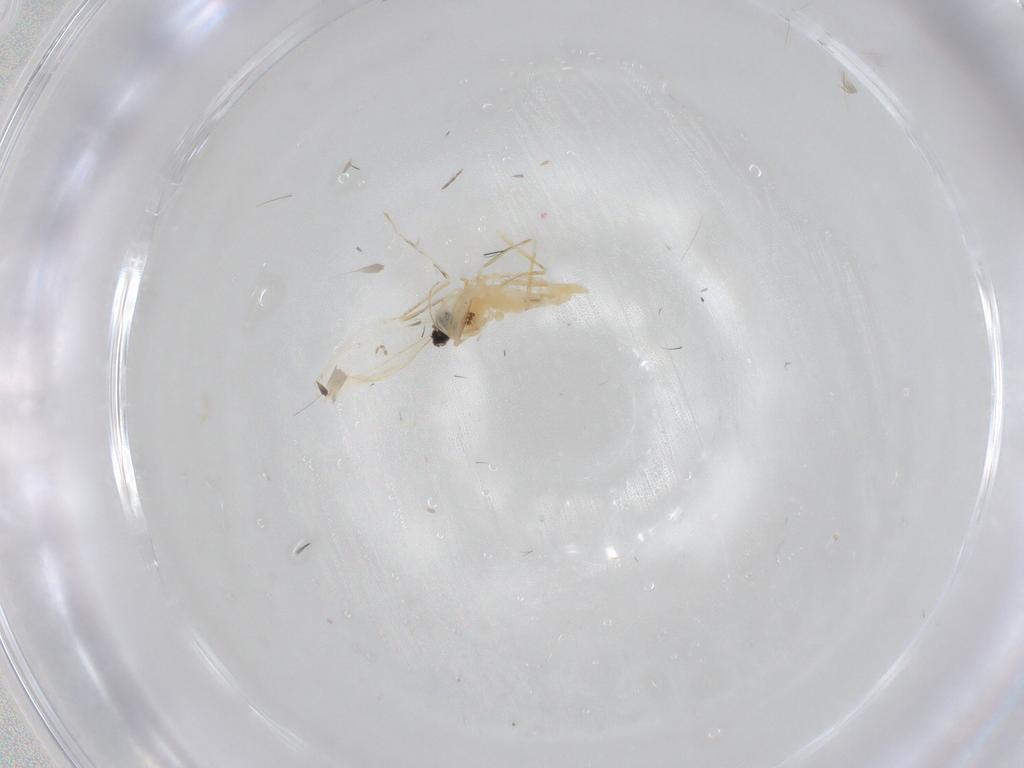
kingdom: Animalia
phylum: Arthropoda
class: Insecta
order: Diptera
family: Cecidomyiidae
